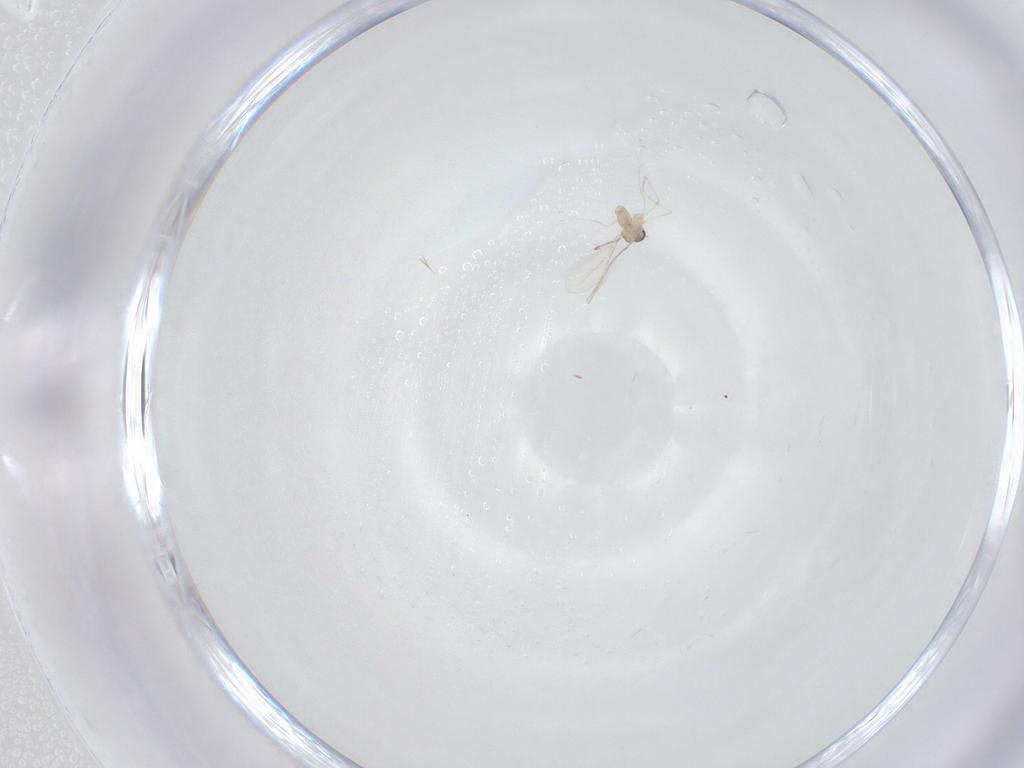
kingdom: Animalia
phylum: Arthropoda
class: Insecta
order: Diptera
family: Cecidomyiidae
